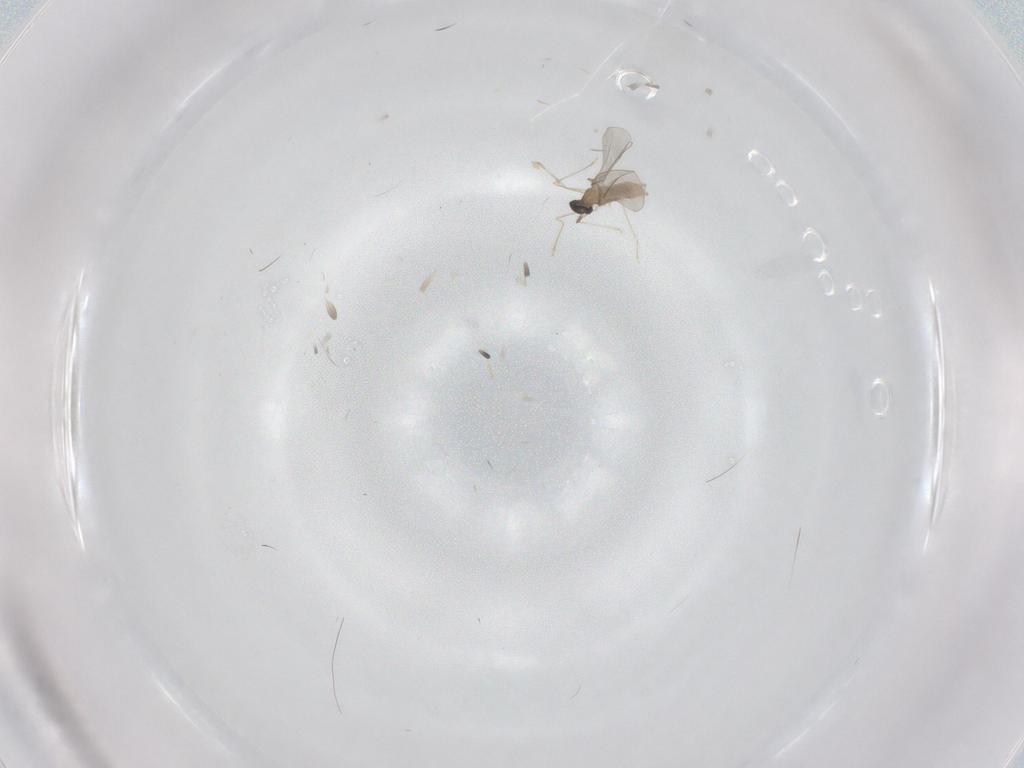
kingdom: Animalia
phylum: Arthropoda
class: Insecta
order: Diptera
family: Cecidomyiidae
